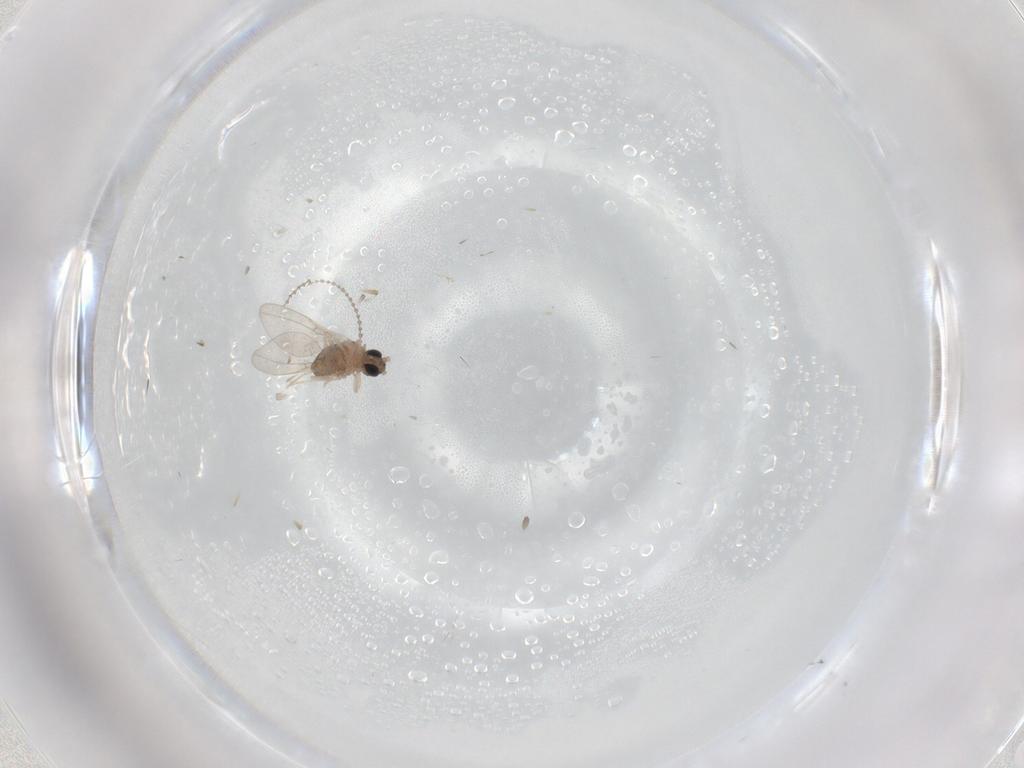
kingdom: Animalia
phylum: Arthropoda
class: Insecta
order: Diptera
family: Cecidomyiidae
